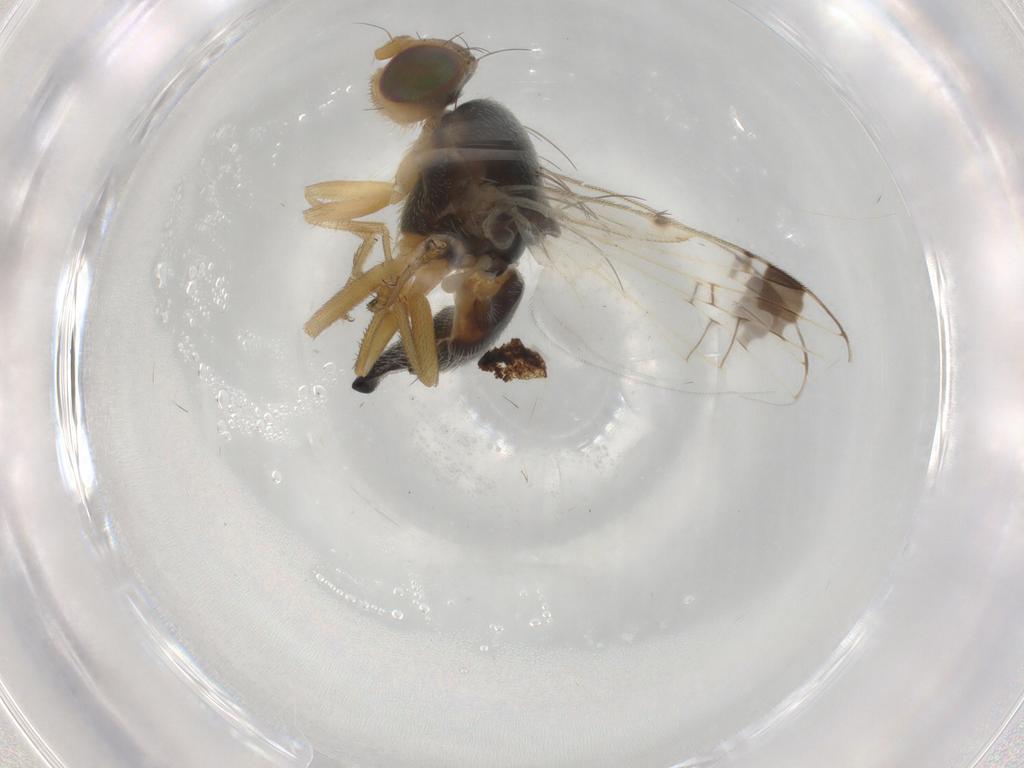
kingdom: Animalia
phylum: Arthropoda
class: Insecta
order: Diptera
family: Tephritidae
